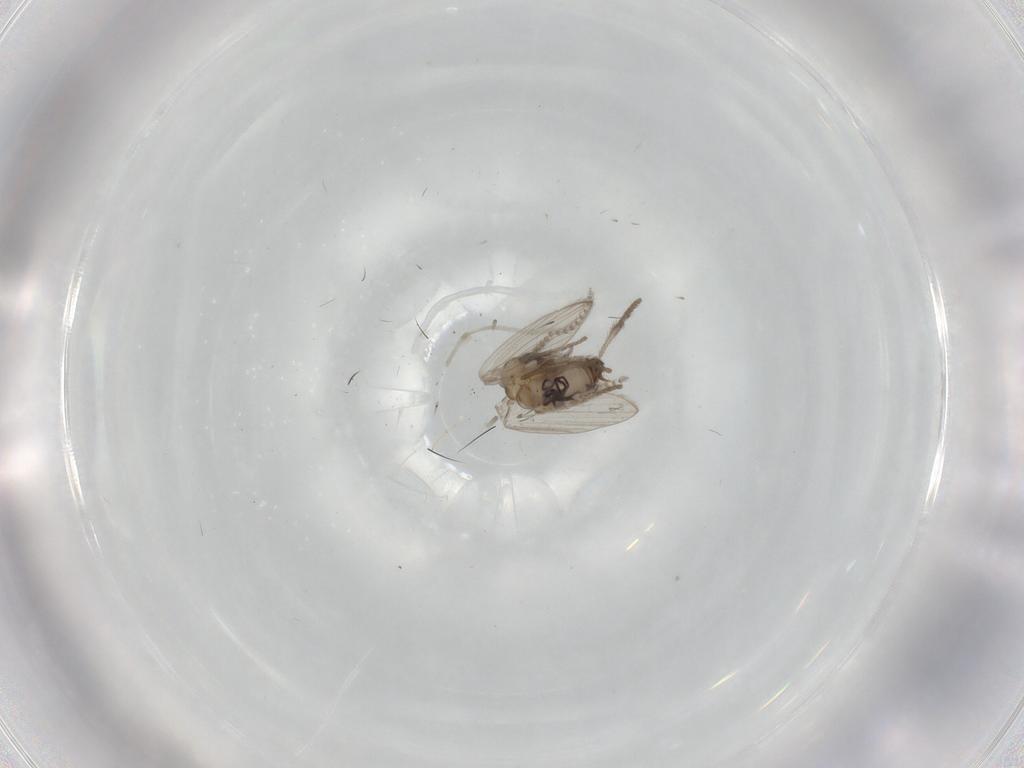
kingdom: Animalia
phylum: Arthropoda
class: Insecta
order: Diptera
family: Psychodidae
